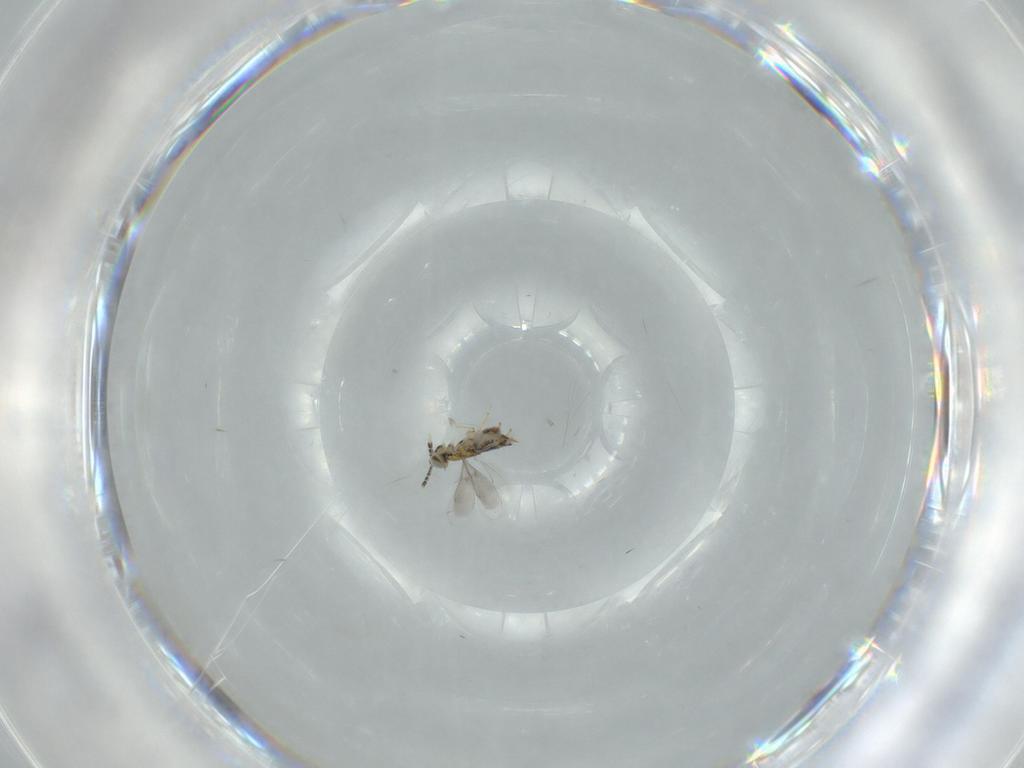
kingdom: Animalia
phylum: Arthropoda
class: Insecta
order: Hymenoptera
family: Aphelinidae
